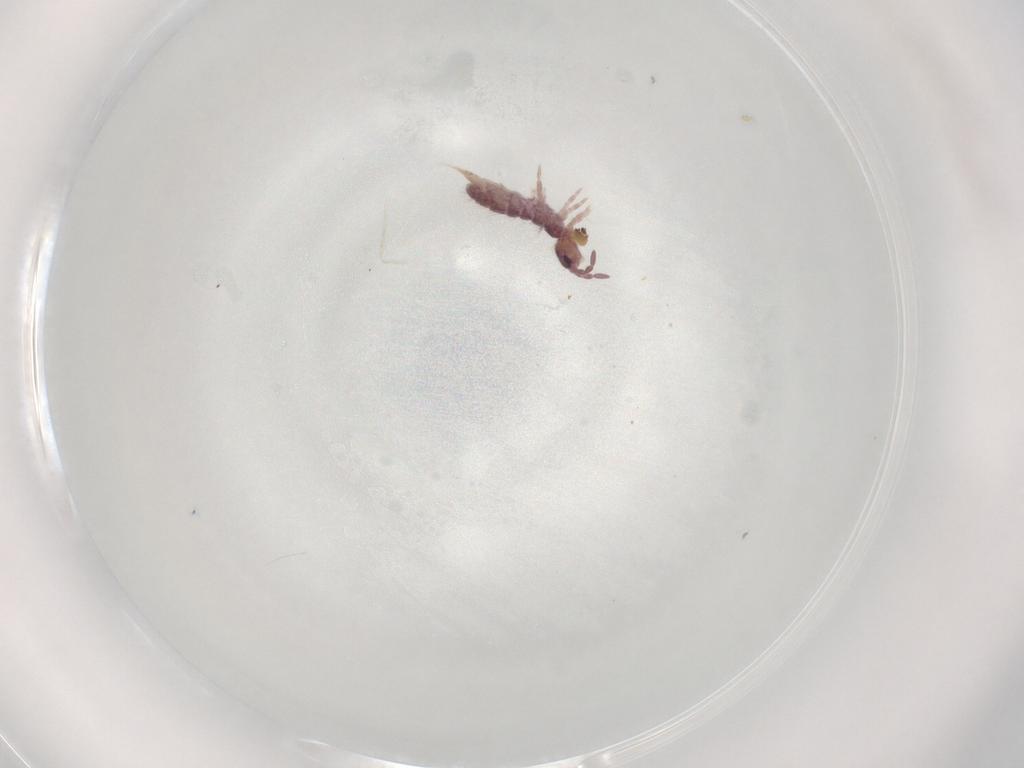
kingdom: Animalia
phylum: Arthropoda
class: Collembola
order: Entomobryomorpha
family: Isotomidae
